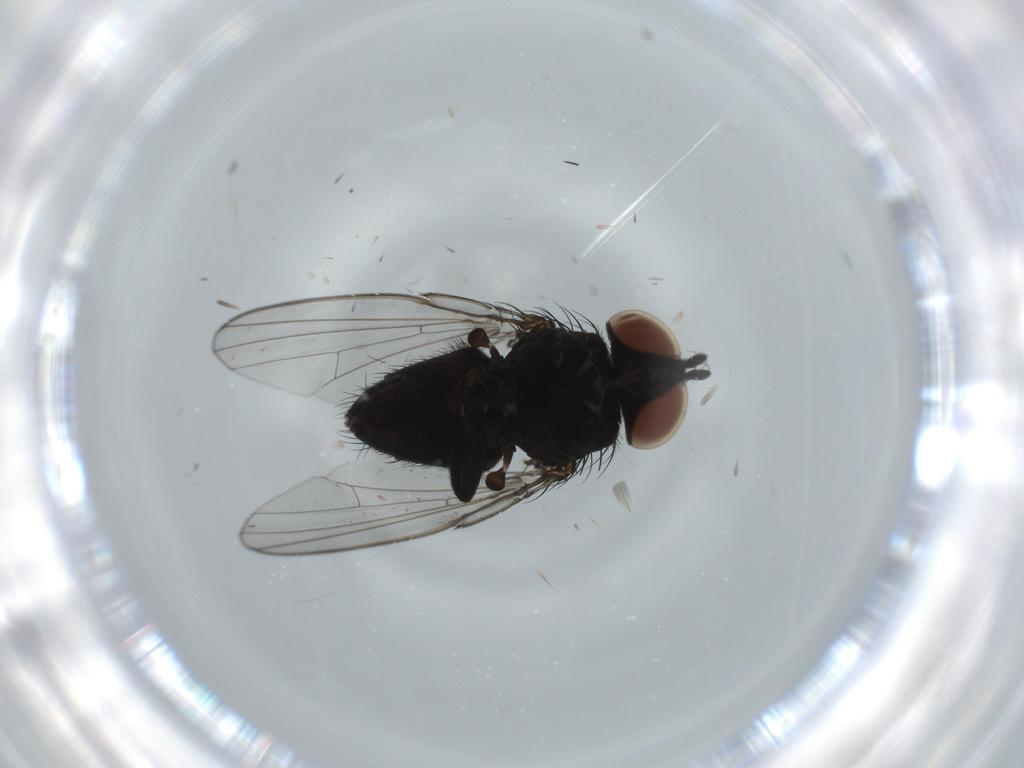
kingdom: Animalia
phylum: Arthropoda
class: Insecta
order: Diptera
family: Milichiidae
